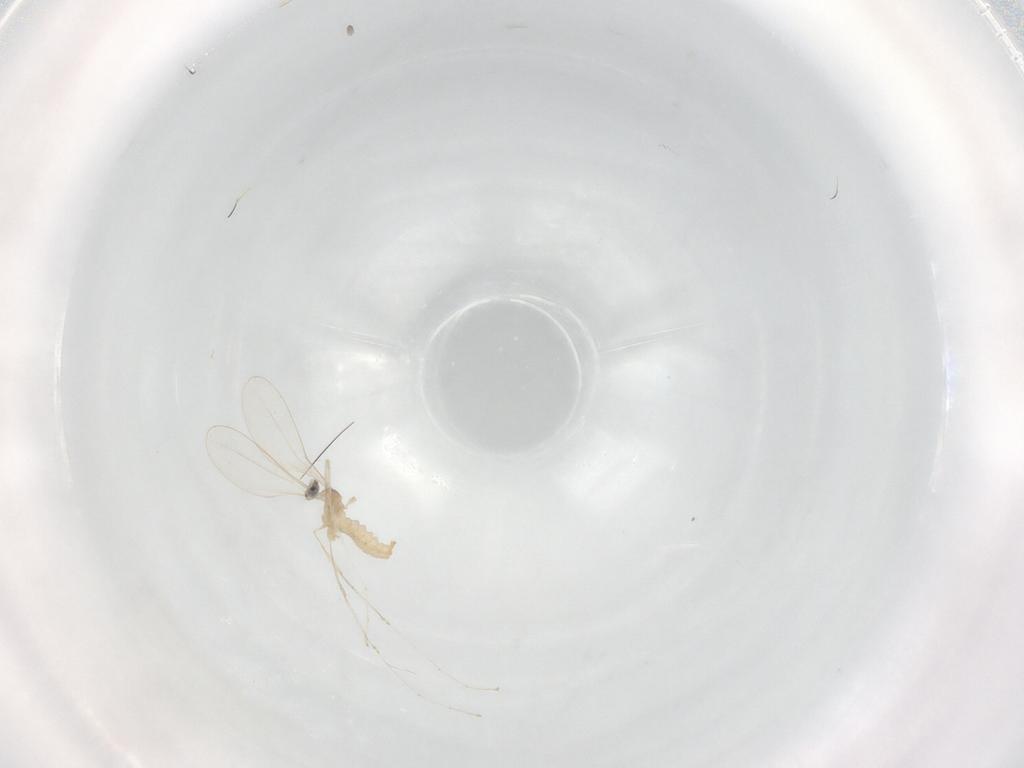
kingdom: Animalia
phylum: Arthropoda
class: Insecta
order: Diptera
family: Cecidomyiidae
